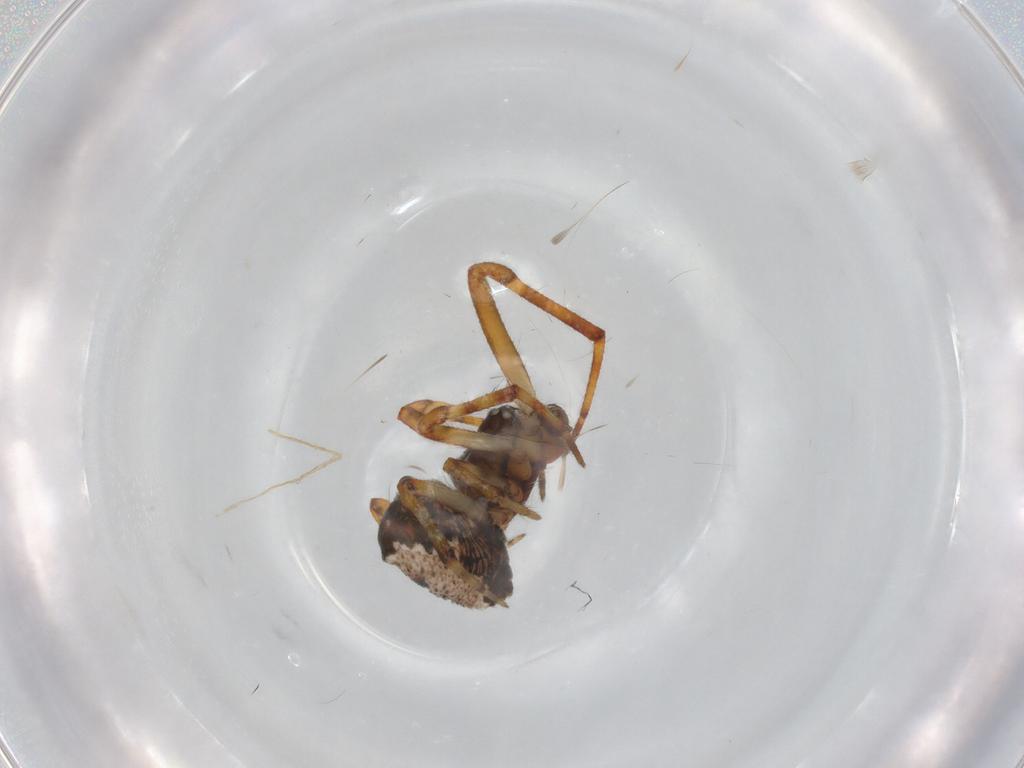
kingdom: Animalia
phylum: Arthropoda
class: Arachnida
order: Araneae
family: Theridiidae
